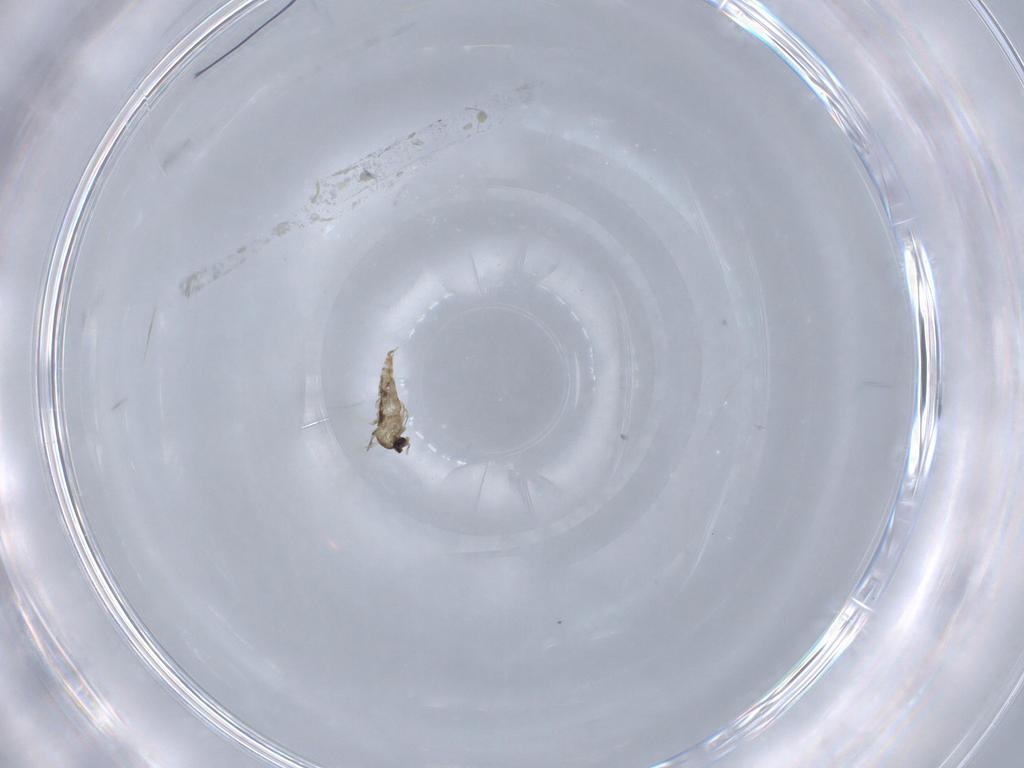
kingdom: Animalia
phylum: Arthropoda
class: Insecta
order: Diptera
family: Cecidomyiidae
